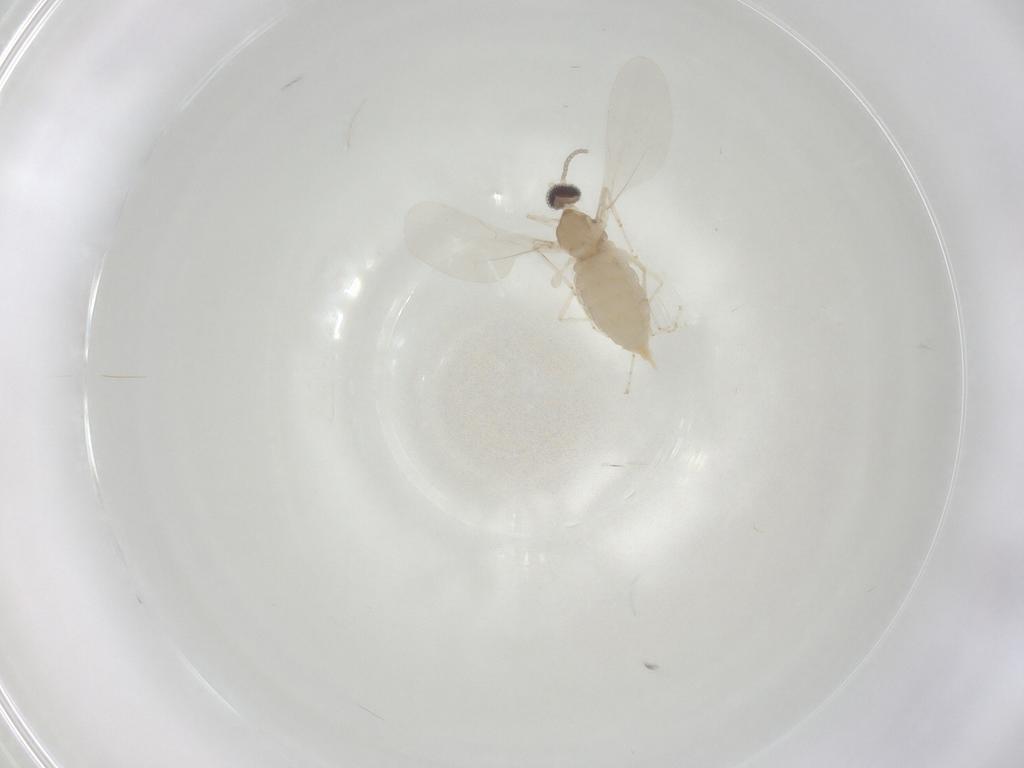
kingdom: Animalia
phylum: Arthropoda
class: Insecta
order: Diptera
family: Cecidomyiidae
